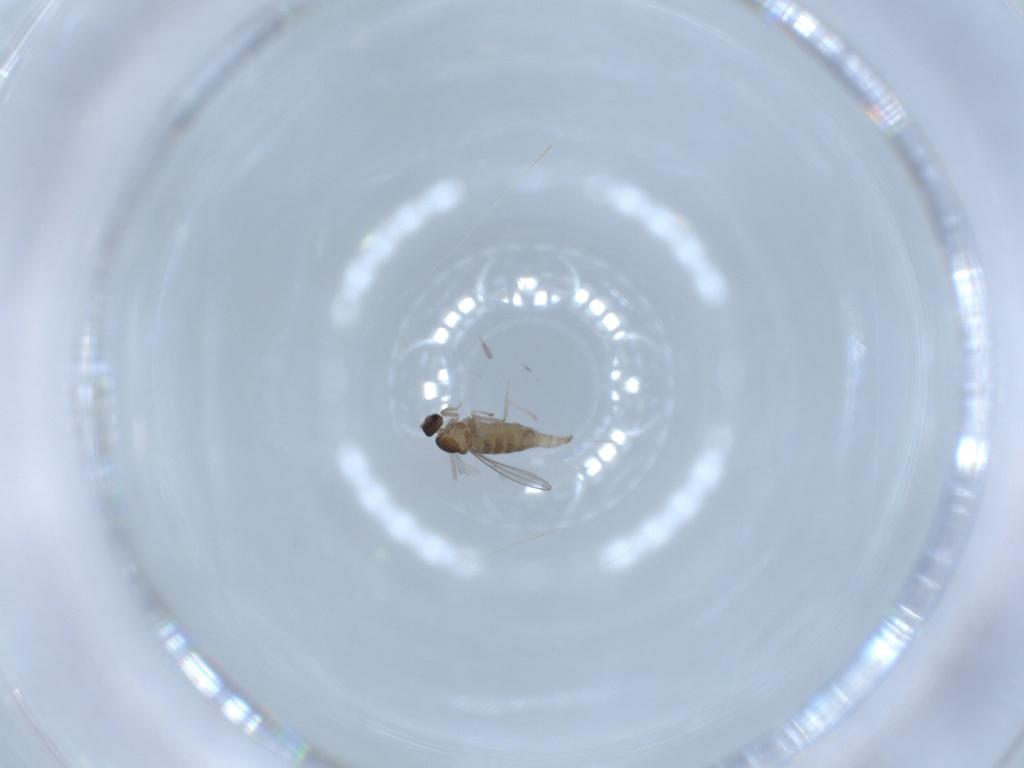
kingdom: Animalia
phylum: Arthropoda
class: Insecta
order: Diptera
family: Cecidomyiidae
